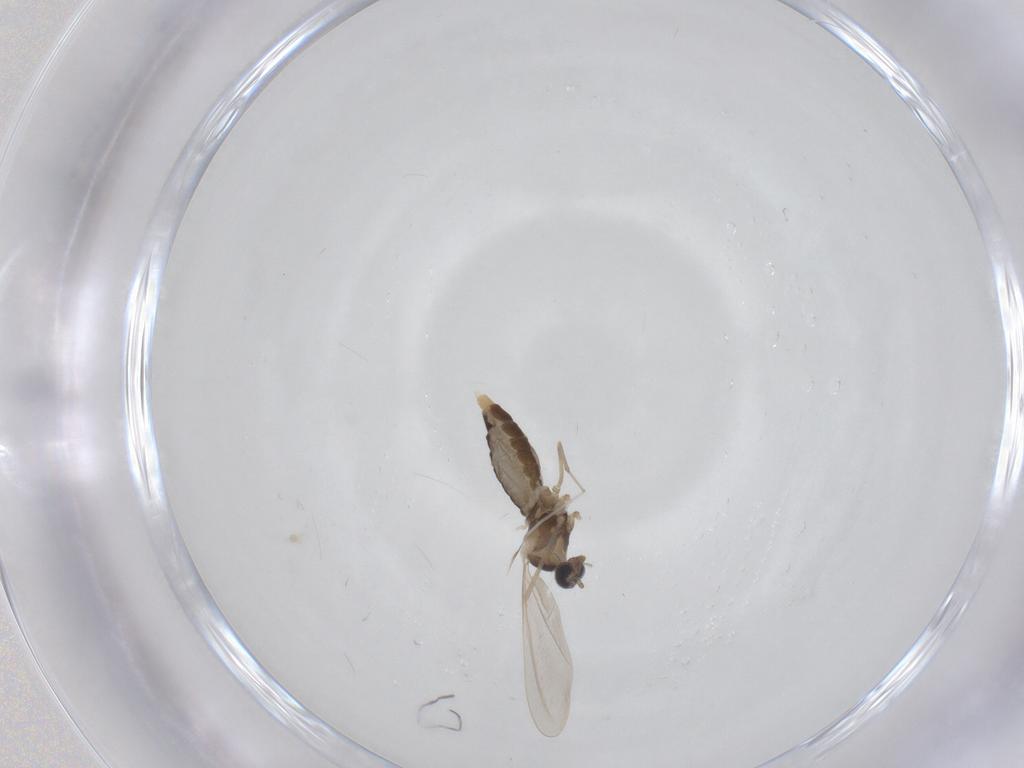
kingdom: Animalia
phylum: Arthropoda
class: Insecta
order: Diptera
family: Cecidomyiidae
